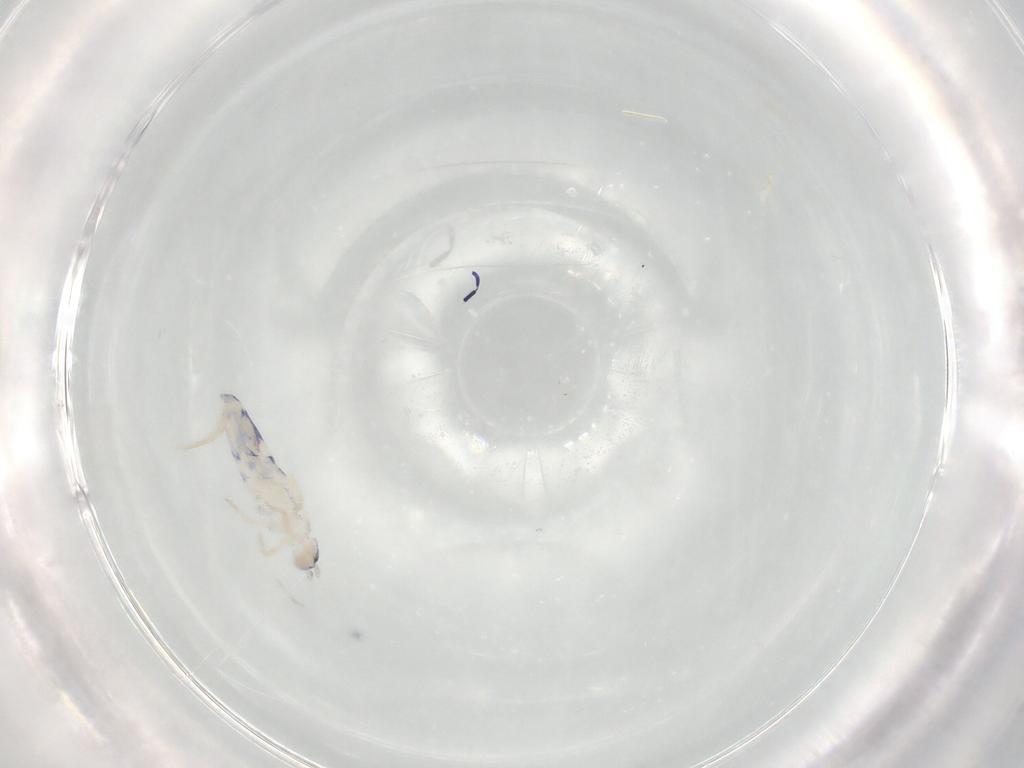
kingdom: Animalia
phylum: Arthropoda
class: Collembola
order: Entomobryomorpha
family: Entomobryidae
